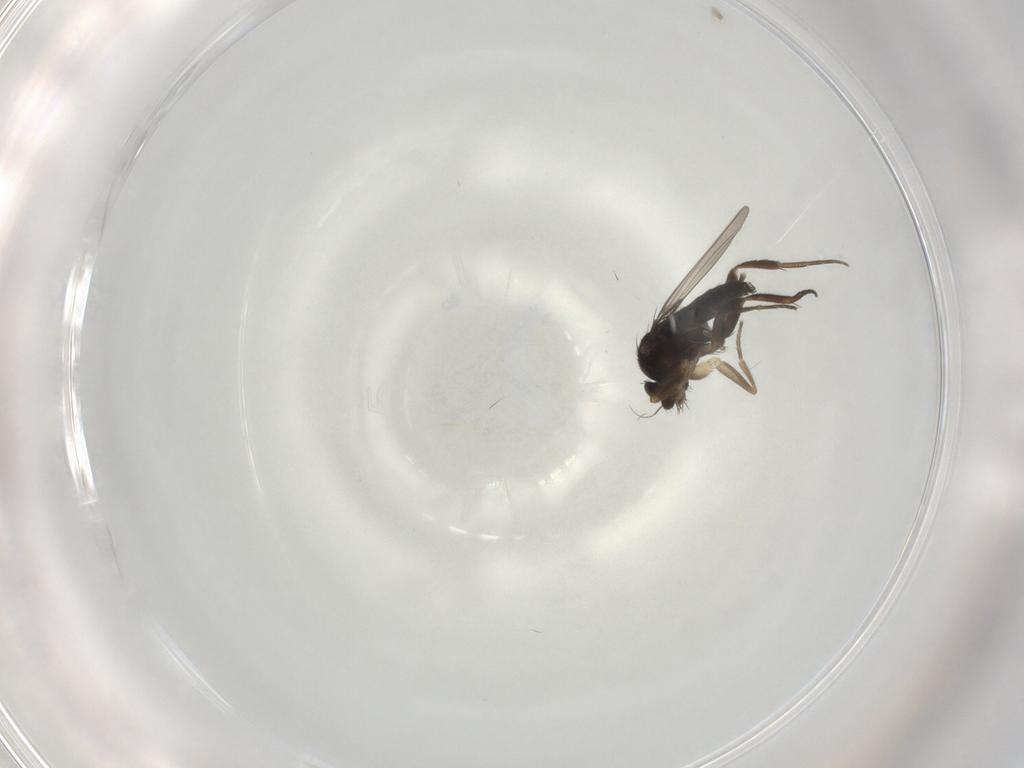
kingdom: Animalia
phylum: Arthropoda
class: Insecta
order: Diptera
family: Phoridae
